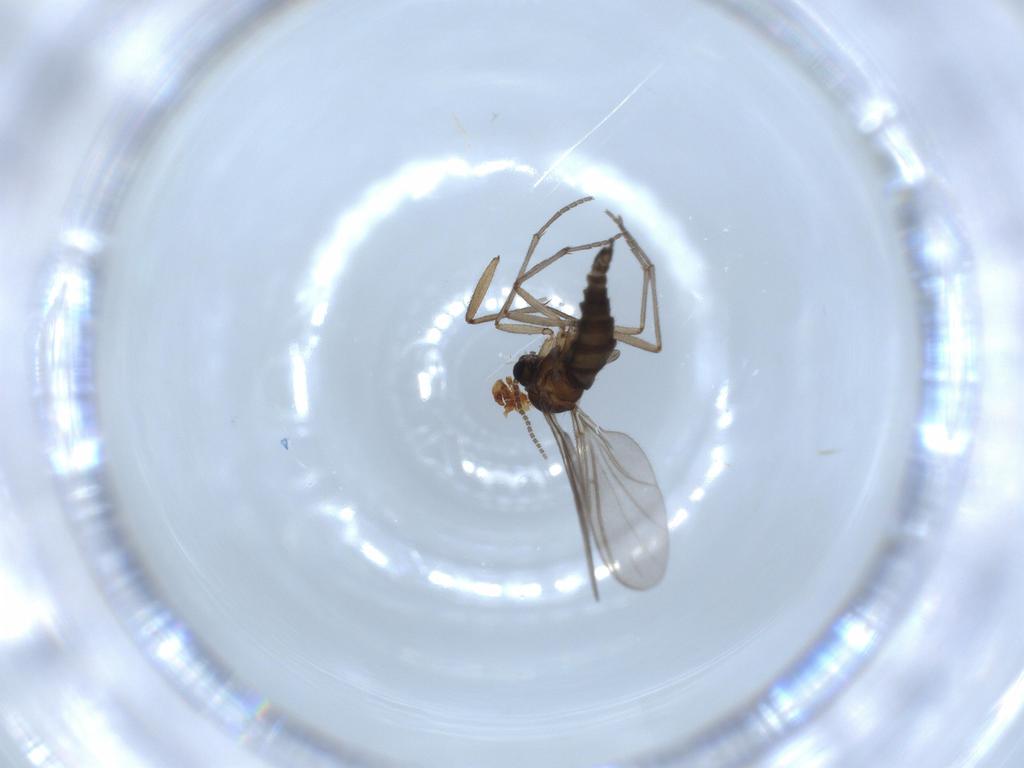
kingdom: Animalia
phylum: Arthropoda
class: Insecta
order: Diptera
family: Sciaridae
